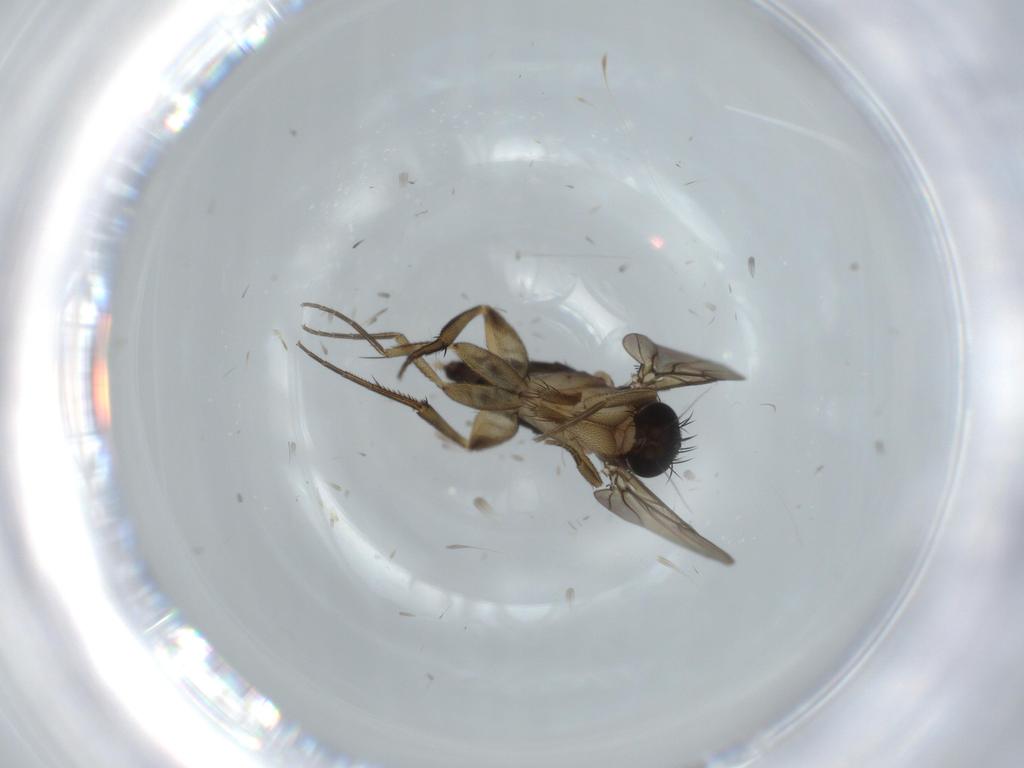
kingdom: Animalia
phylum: Arthropoda
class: Insecta
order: Diptera
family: Phoridae
